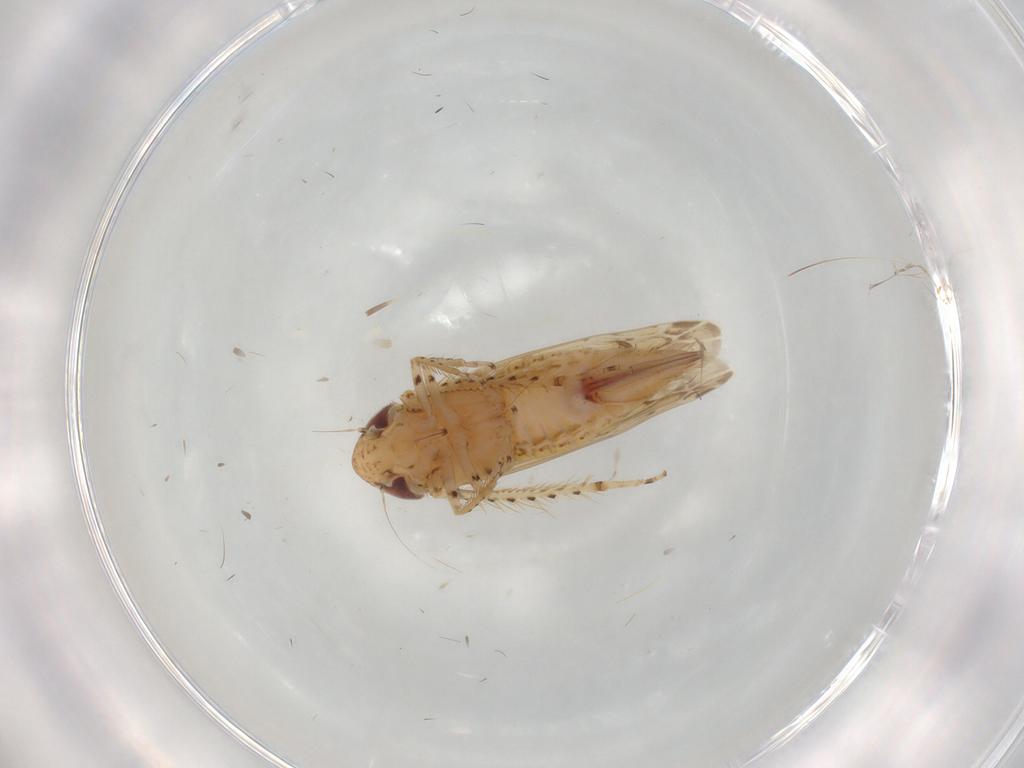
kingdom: Animalia
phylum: Arthropoda
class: Insecta
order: Hemiptera
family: Cicadellidae
